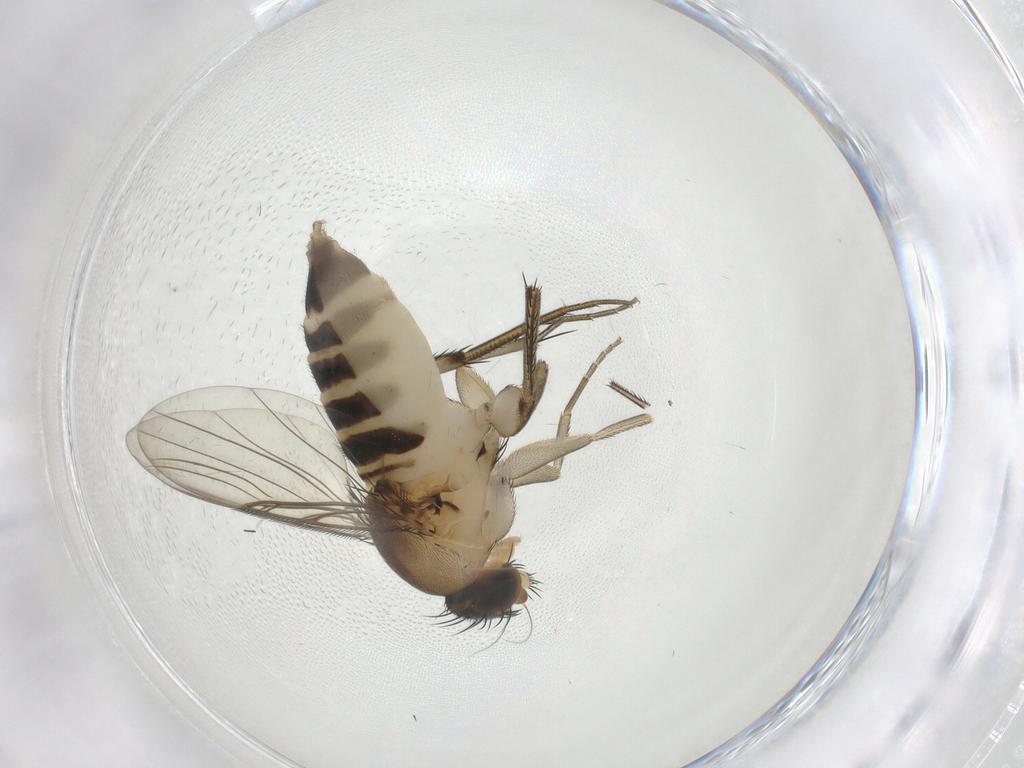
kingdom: Animalia
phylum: Arthropoda
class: Insecta
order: Diptera
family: Phoridae
